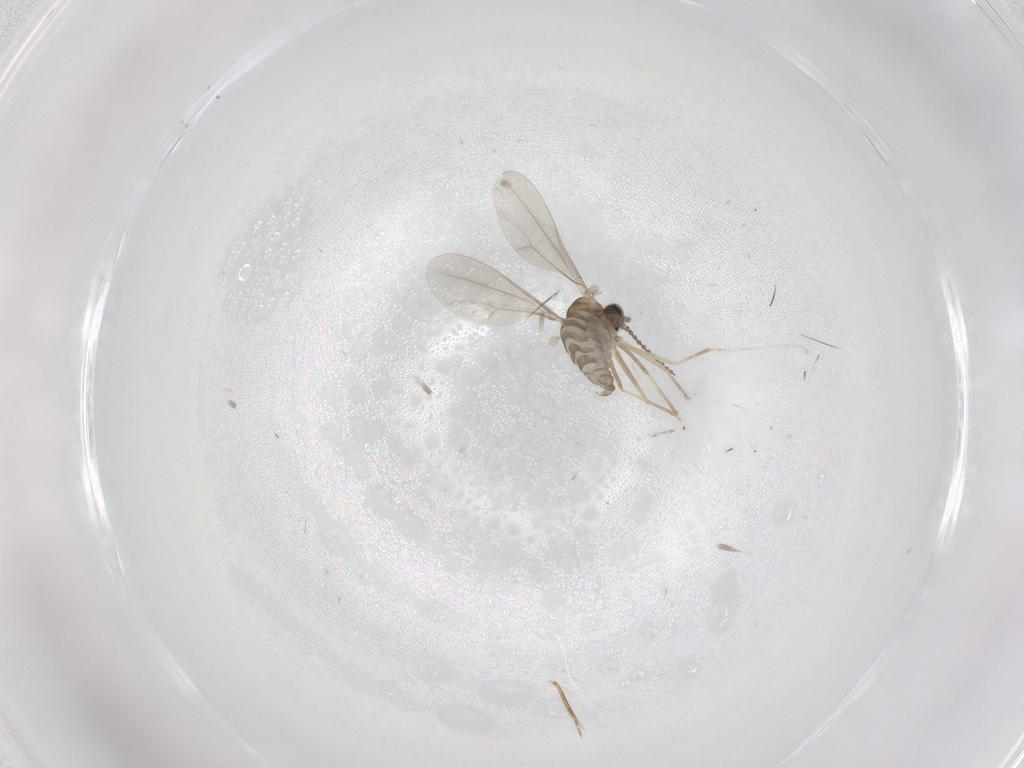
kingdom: Animalia
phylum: Arthropoda
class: Insecta
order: Diptera
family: Cecidomyiidae
